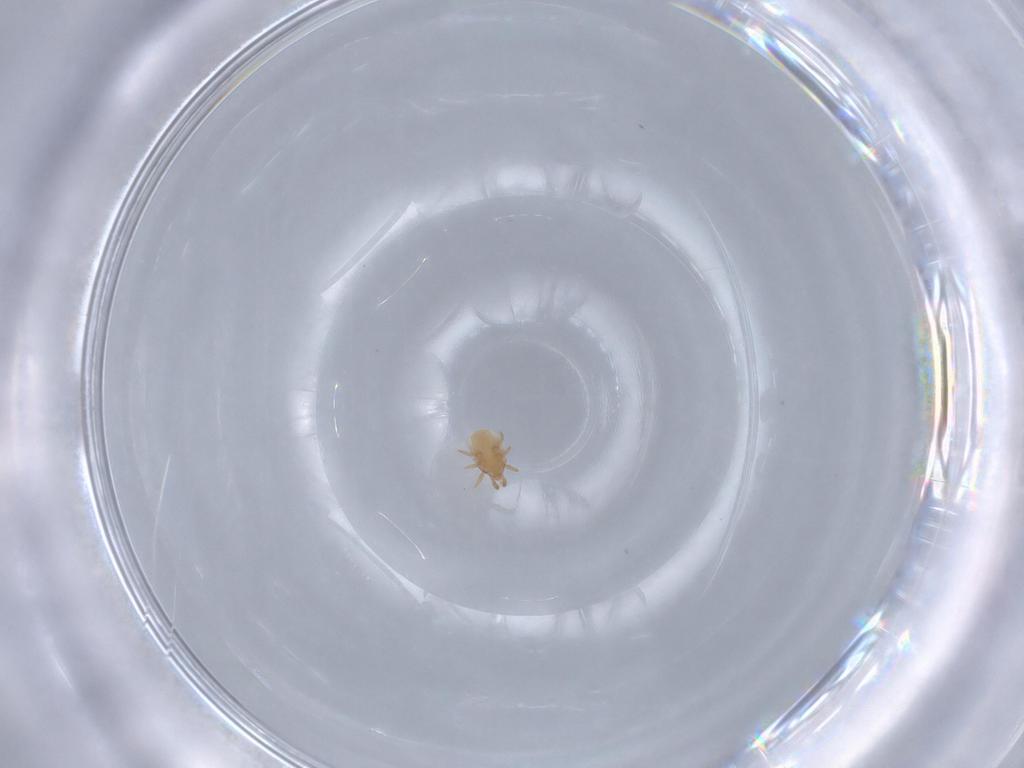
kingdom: Animalia
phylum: Arthropoda
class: Arachnida
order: Mesostigmata
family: Dinychidae
